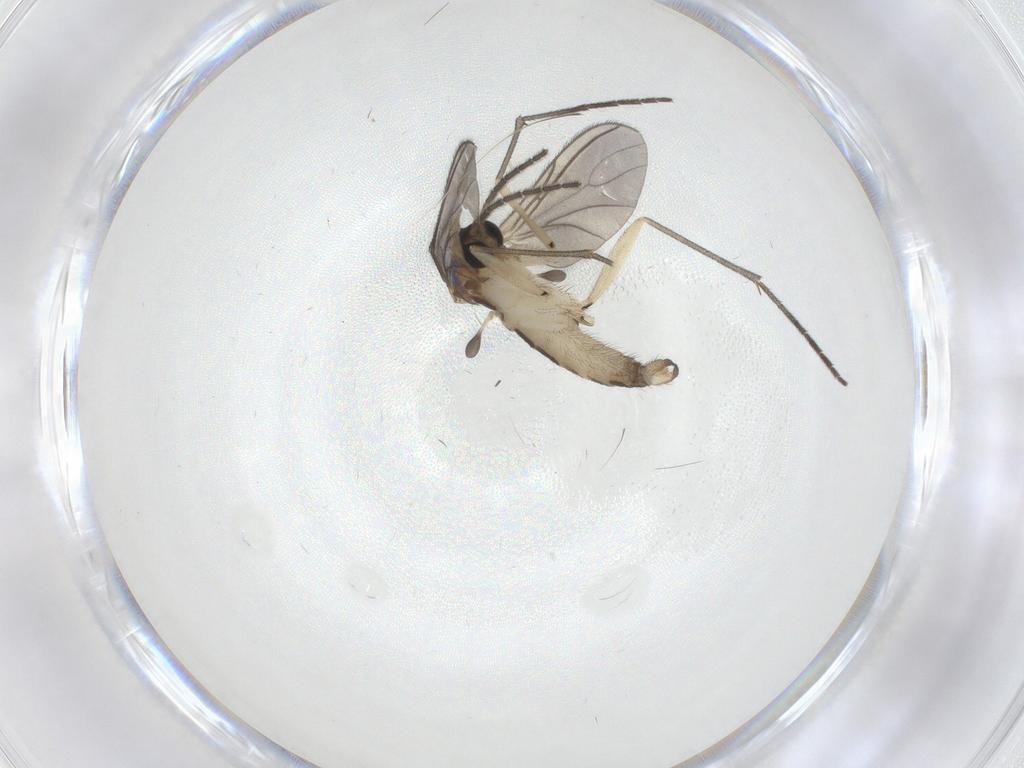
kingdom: Animalia
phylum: Arthropoda
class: Insecta
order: Diptera
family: Sciaridae
